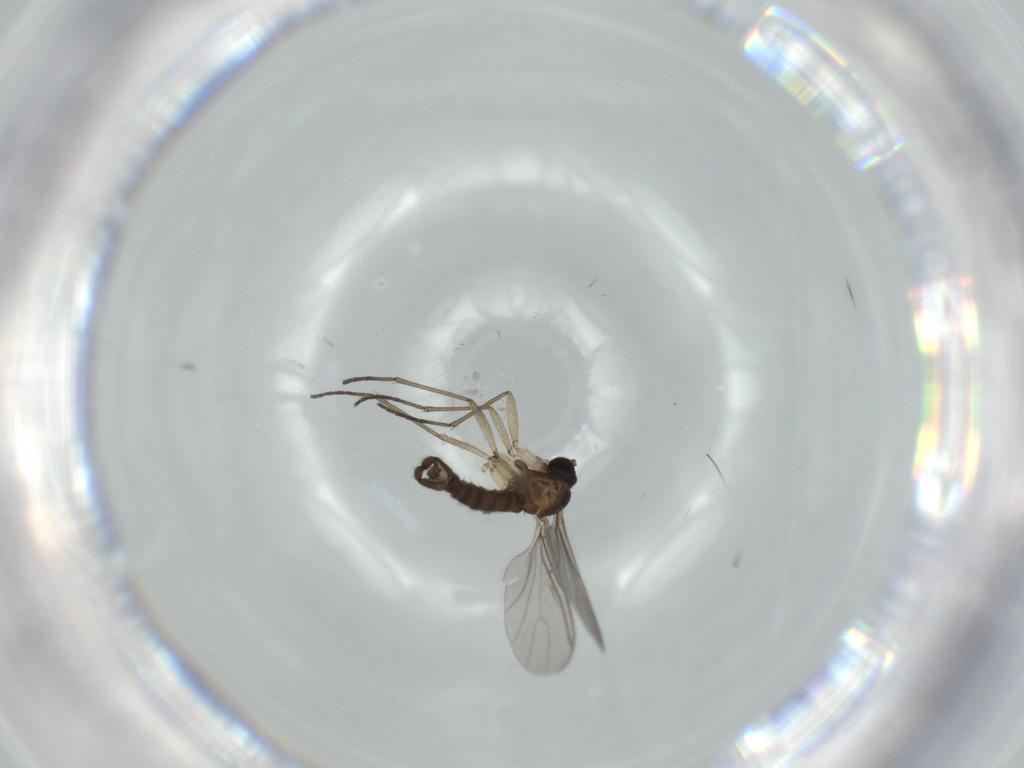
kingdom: Animalia
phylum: Arthropoda
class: Insecta
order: Diptera
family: Sciaridae
